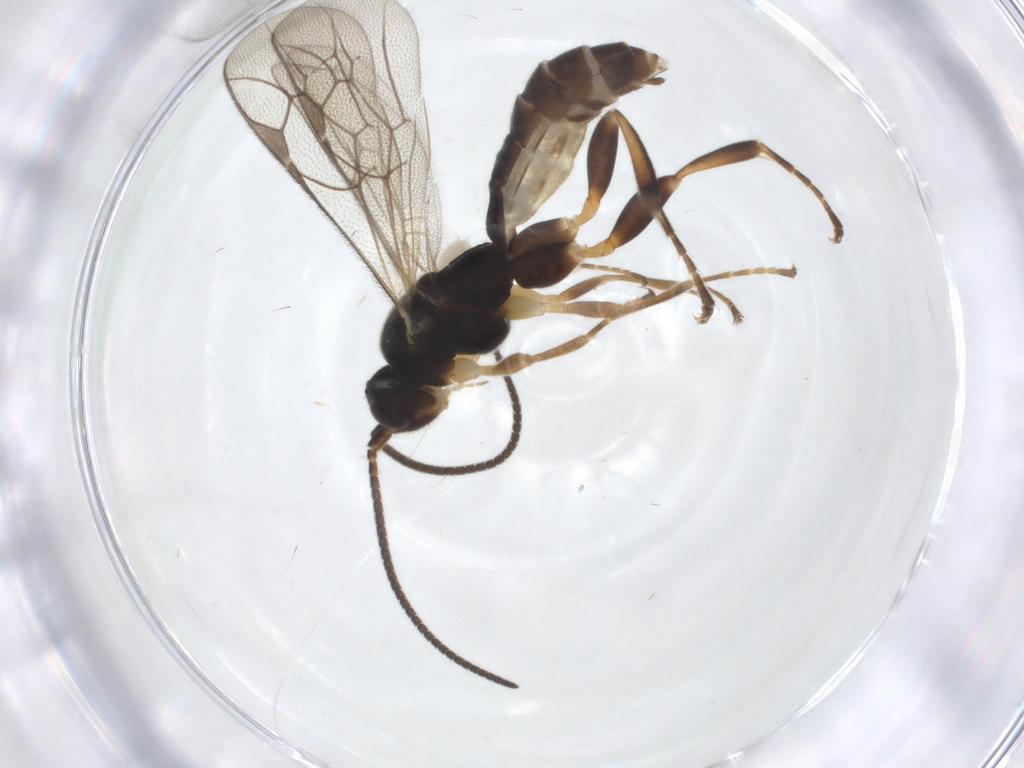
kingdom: Animalia
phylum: Arthropoda
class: Insecta
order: Hymenoptera
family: Ichneumonidae
